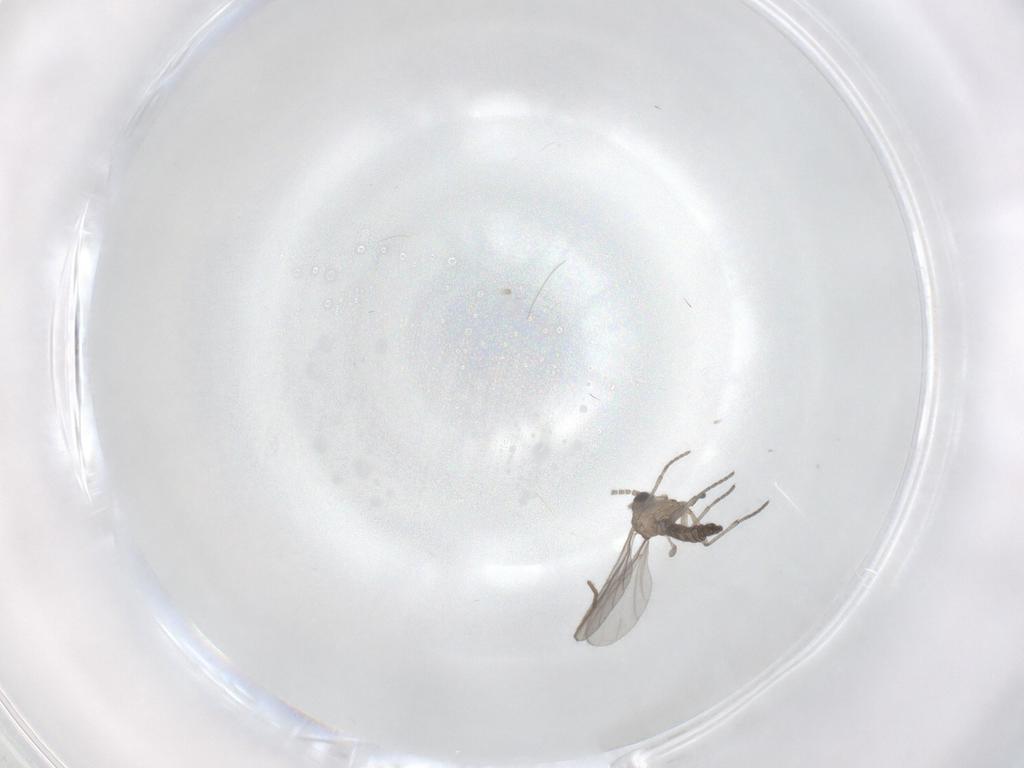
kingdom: Animalia
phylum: Arthropoda
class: Insecta
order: Diptera
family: Sciaridae
